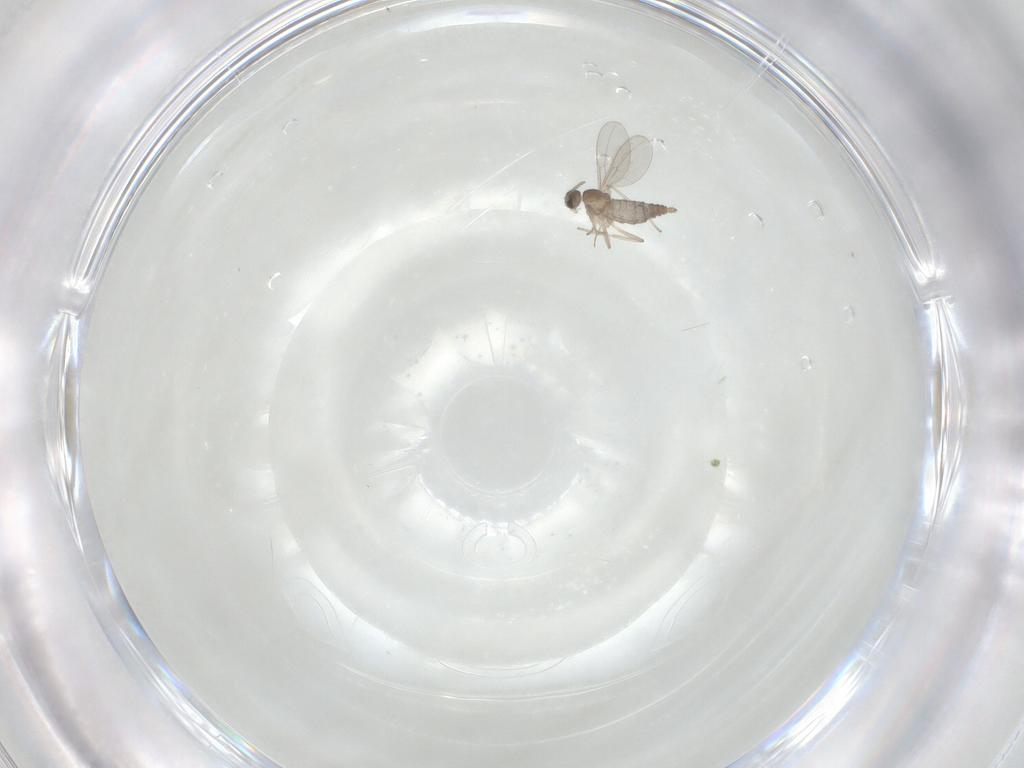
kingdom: Animalia
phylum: Arthropoda
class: Insecta
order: Diptera
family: Cecidomyiidae
